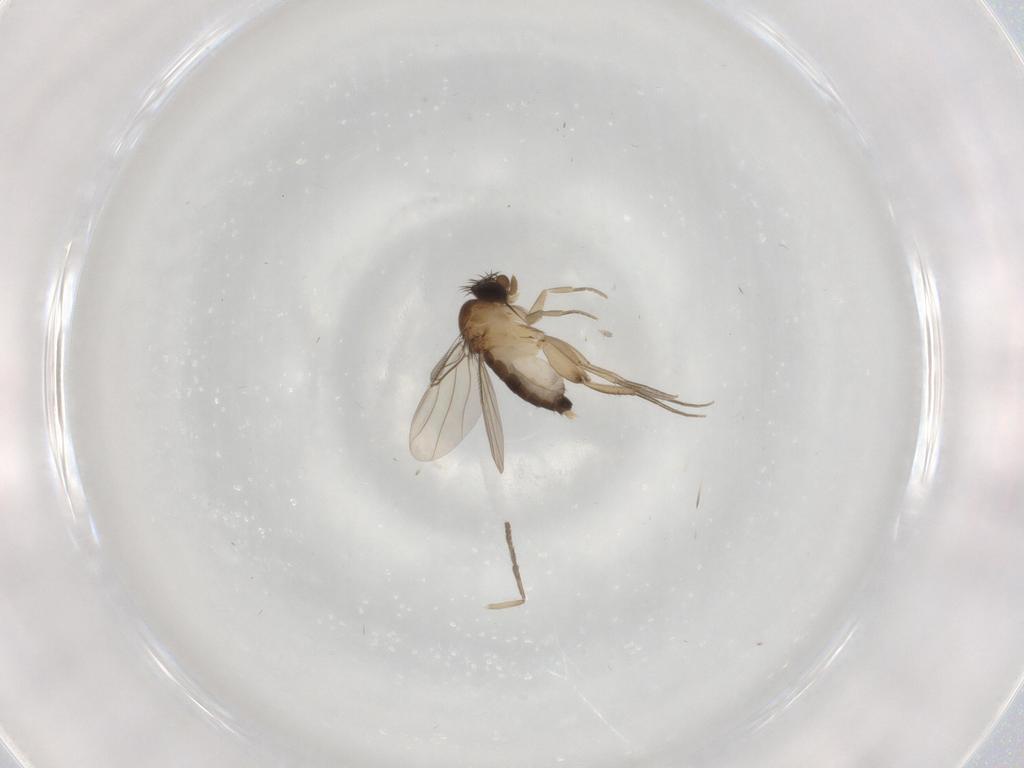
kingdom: Animalia
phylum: Arthropoda
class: Insecta
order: Diptera
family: Phoridae
